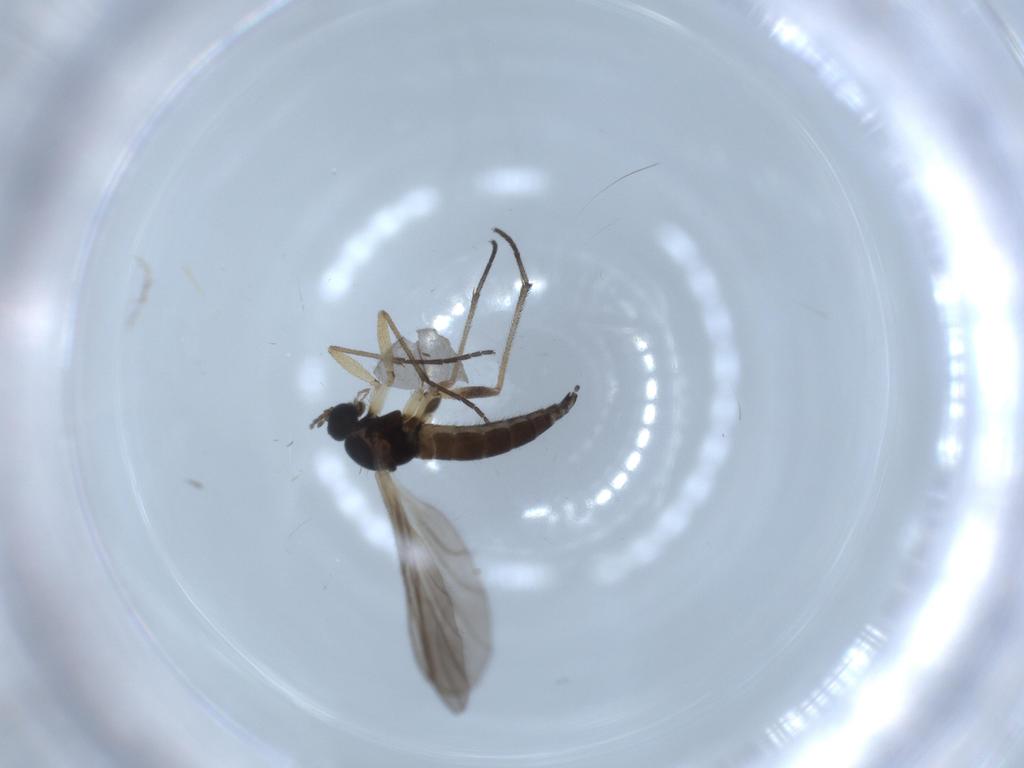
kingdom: Animalia
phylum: Arthropoda
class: Insecta
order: Diptera
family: Sciaridae
